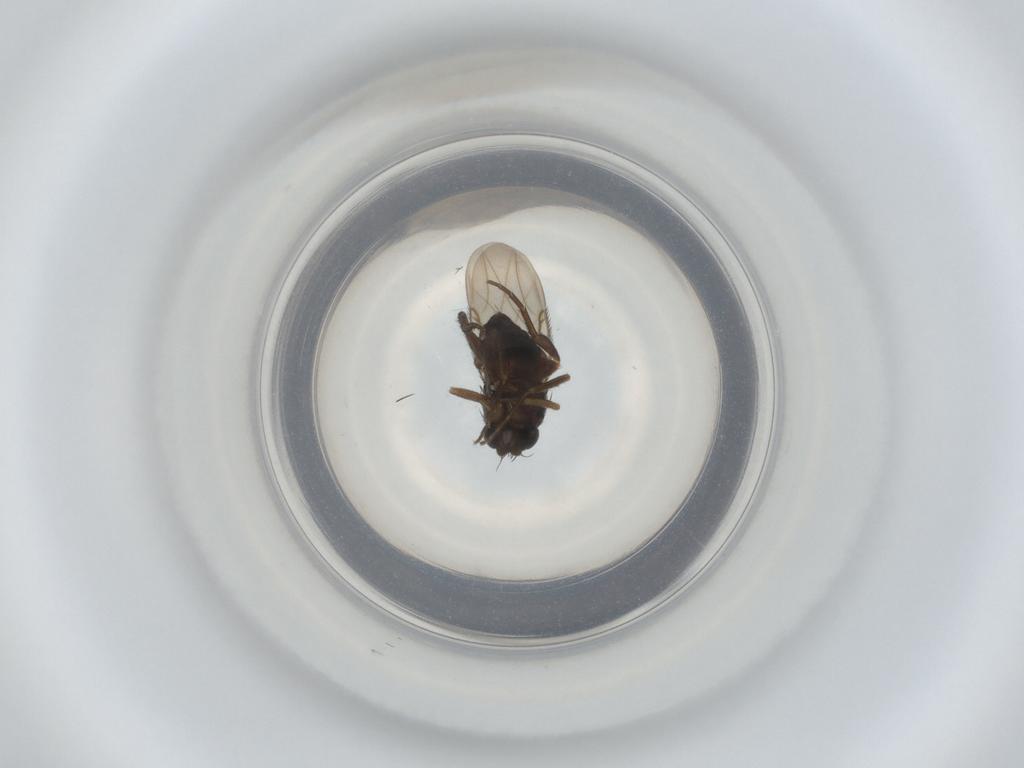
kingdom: Animalia
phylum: Arthropoda
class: Insecta
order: Diptera
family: Phoridae
